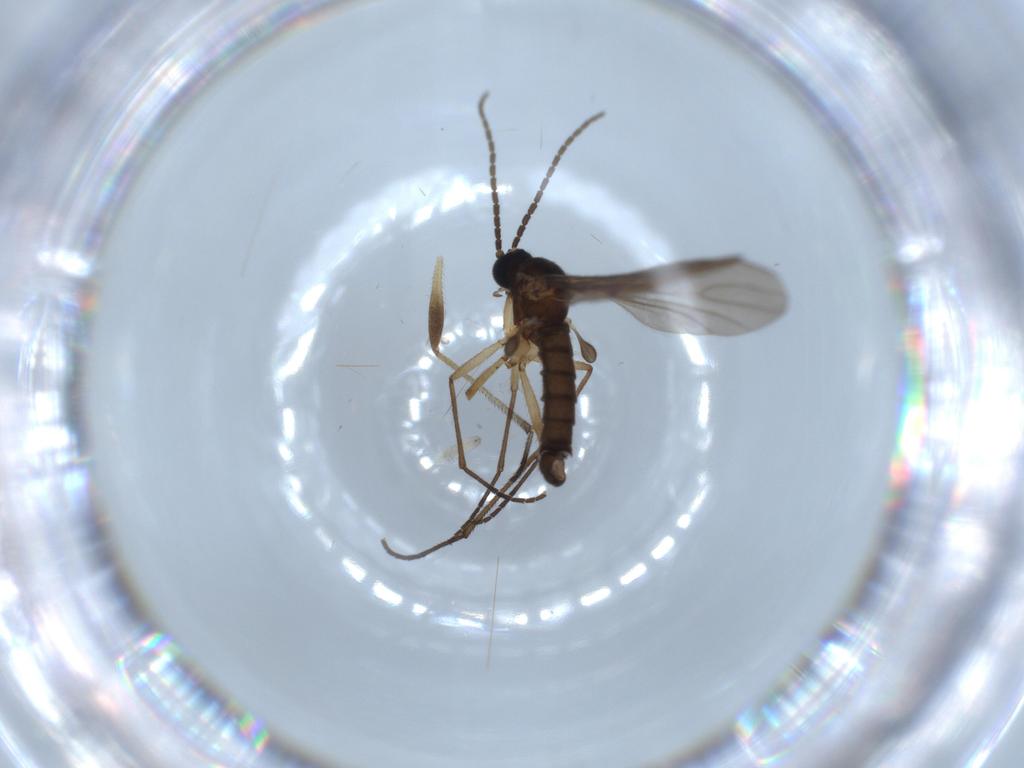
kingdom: Animalia
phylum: Arthropoda
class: Insecta
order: Diptera
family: Sciaridae
